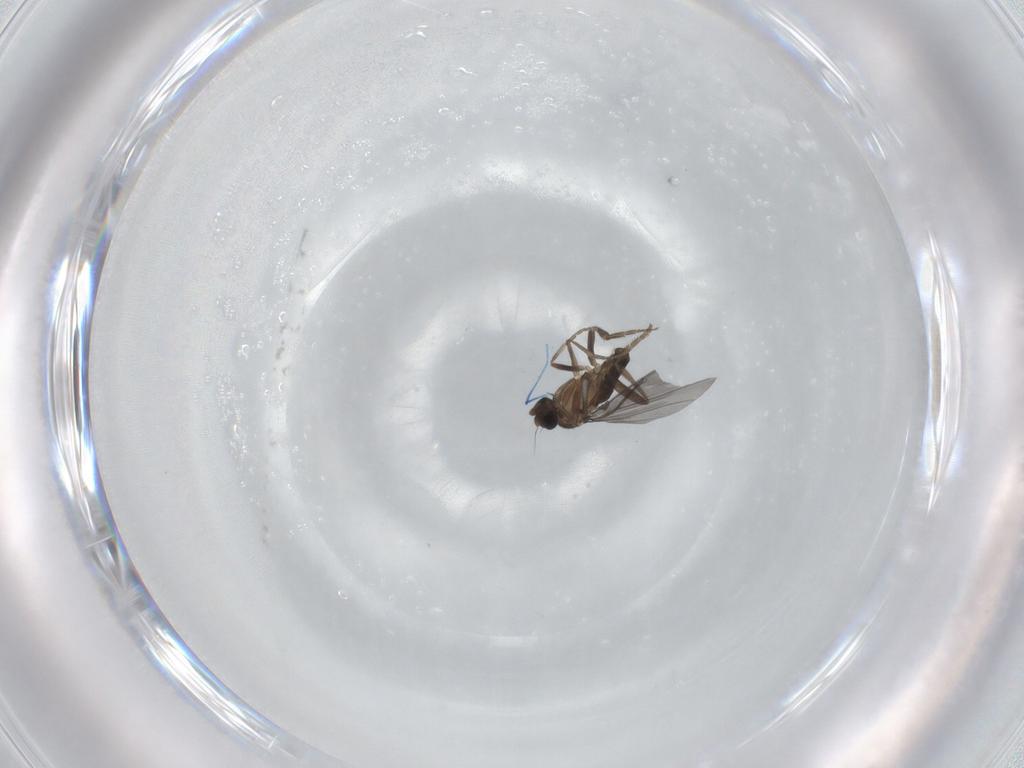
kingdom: Animalia
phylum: Arthropoda
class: Insecta
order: Diptera
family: Phoridae
